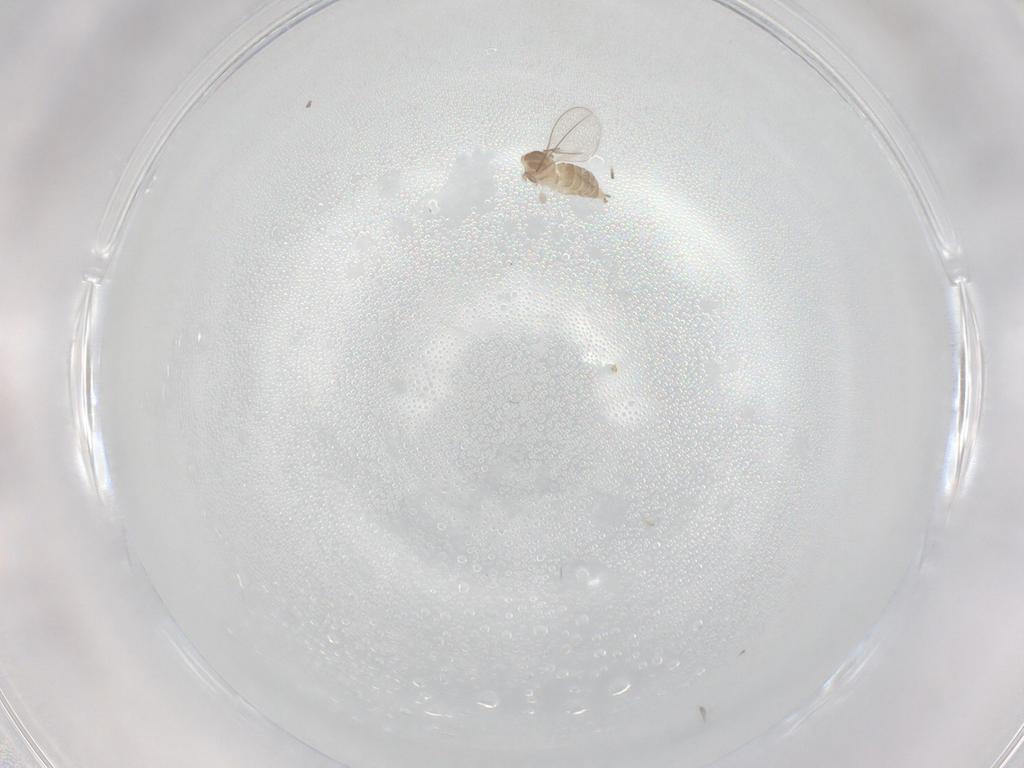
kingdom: Animalia
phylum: Arthropoda
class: Insecta
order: Diptera
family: Cecidomyiidae
